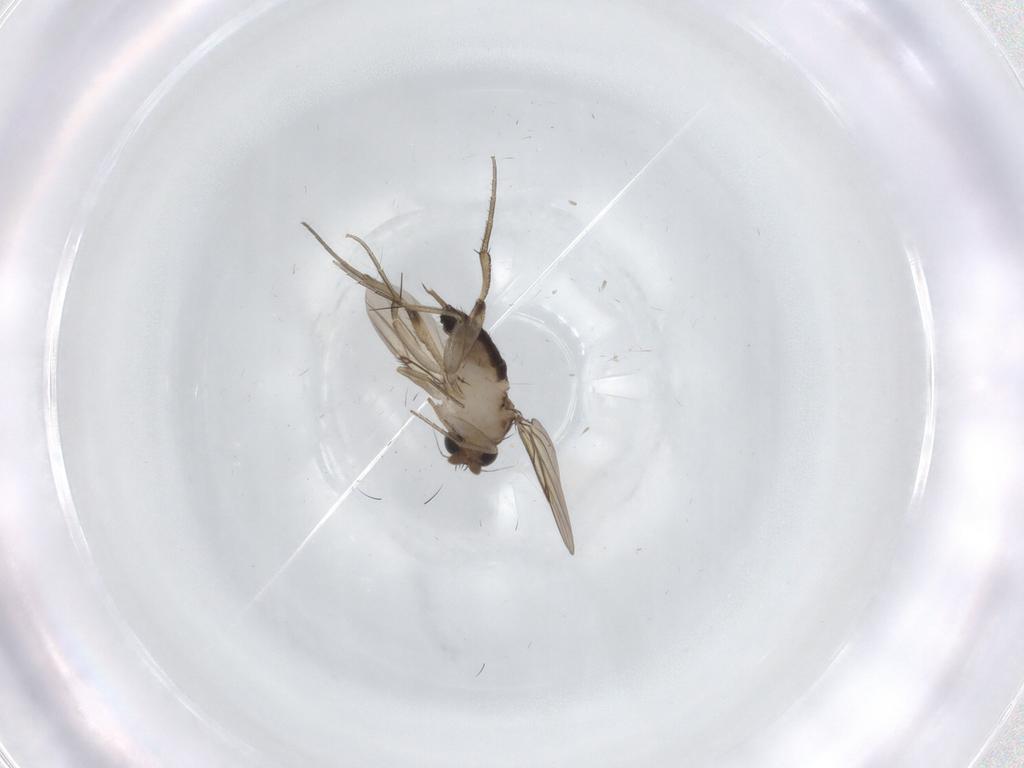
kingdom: Animalia
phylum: Arthropoda
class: Insecta
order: Diptera
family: Phoridae
